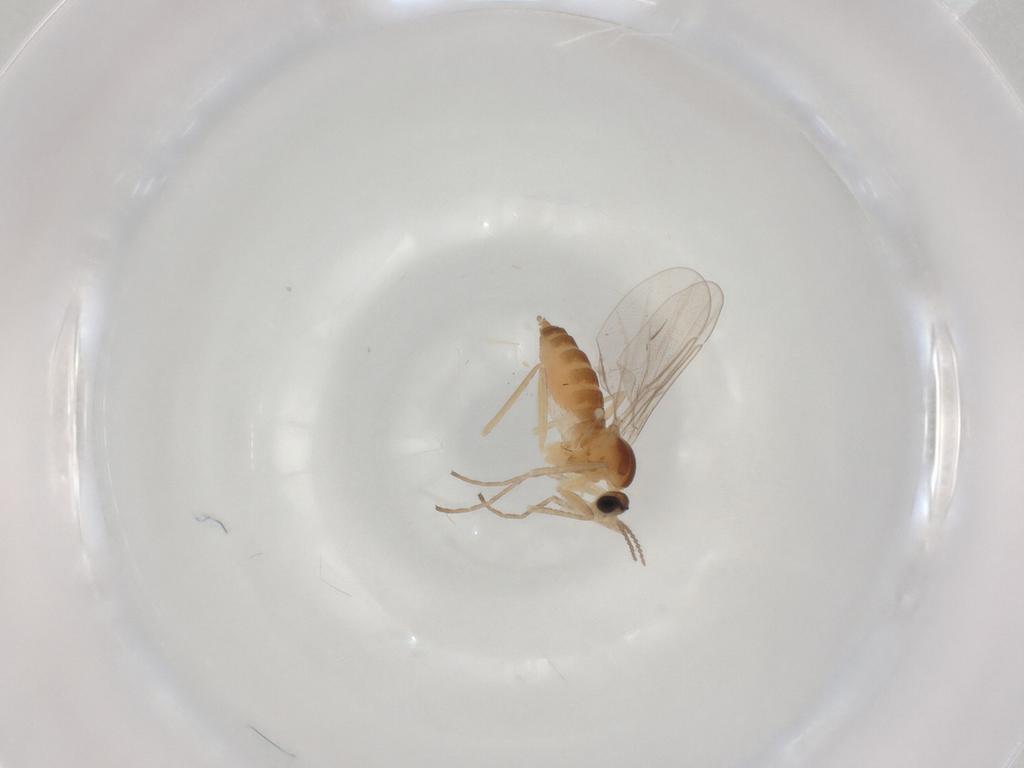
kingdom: Animalia
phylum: Arthropoda
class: Insecta
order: Diptera
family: Cecidomyiidae
